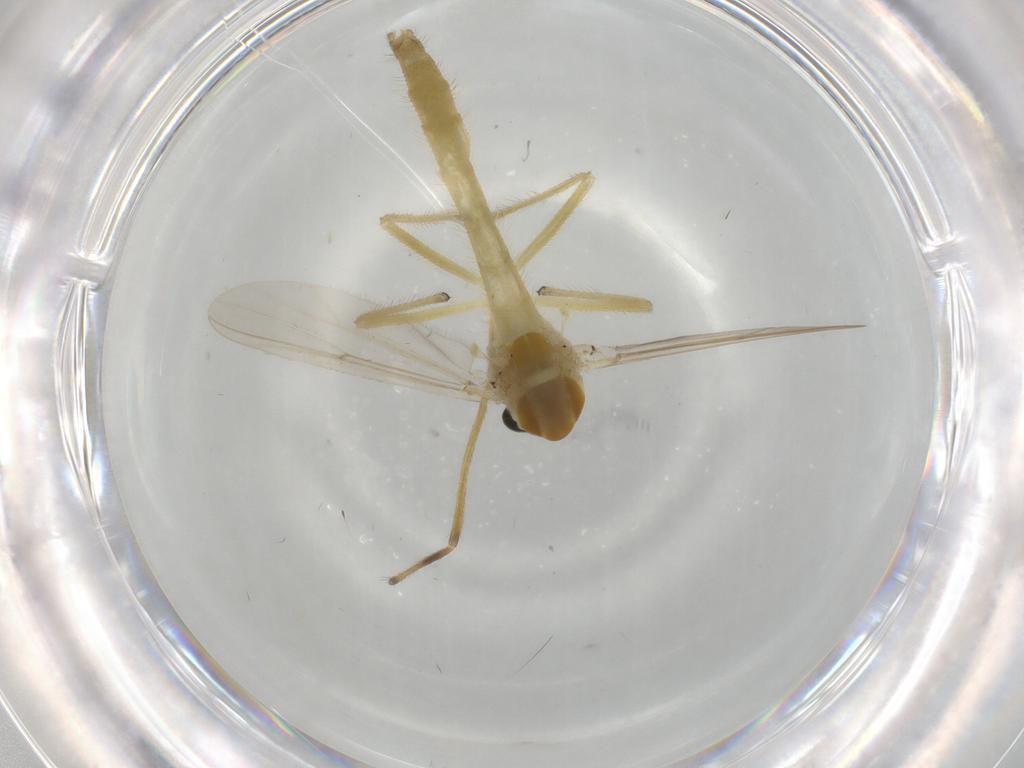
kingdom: Animalia
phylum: Arthropoda
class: Insecta
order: Diptera
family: Chironomidae
